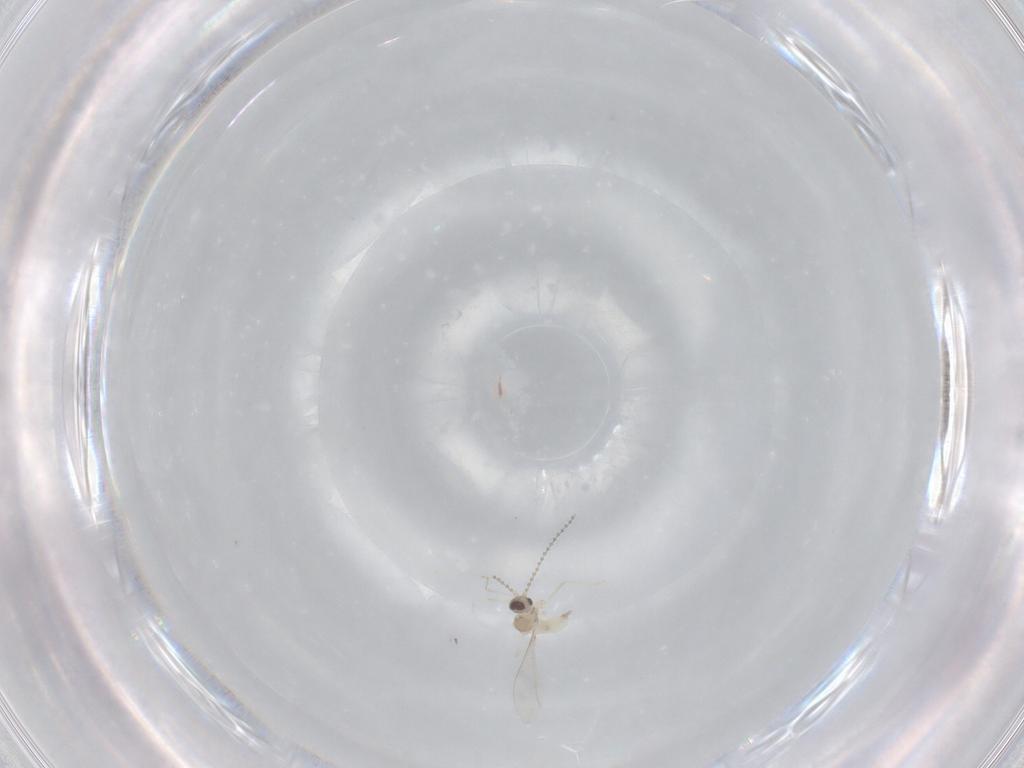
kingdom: Animalia
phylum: Arthropoda
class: Insecta
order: Diptera
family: Cecidomyiidae
